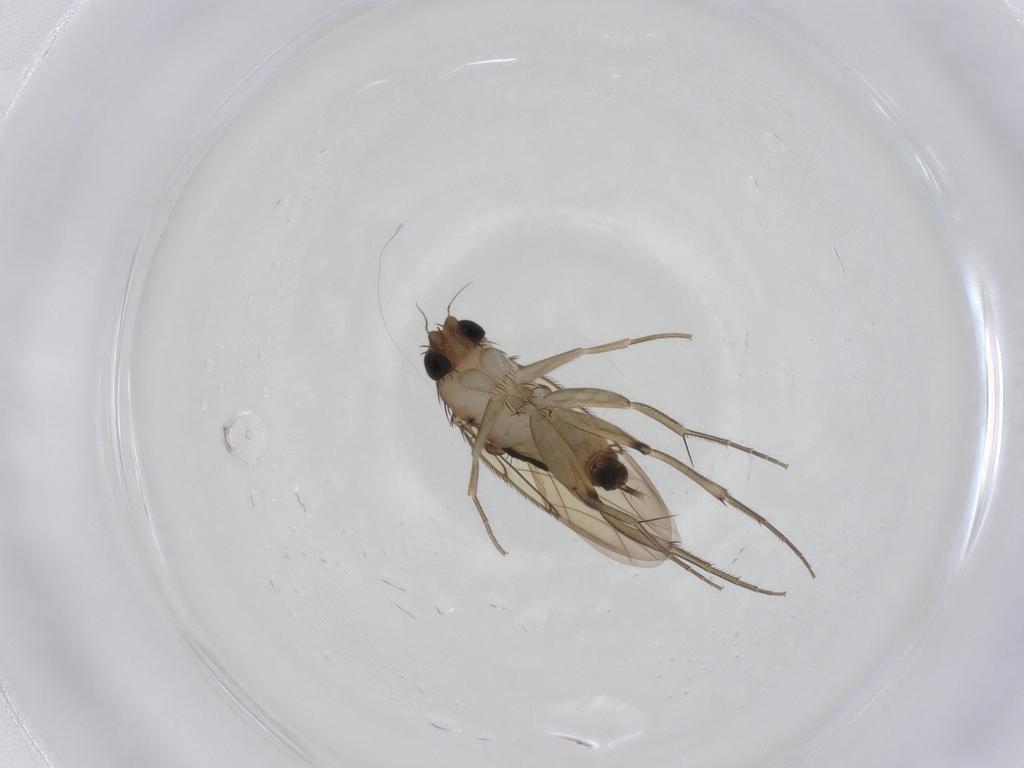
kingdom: Animalia
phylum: Arthropoda
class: Insecta
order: Diptera
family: Phoridae
